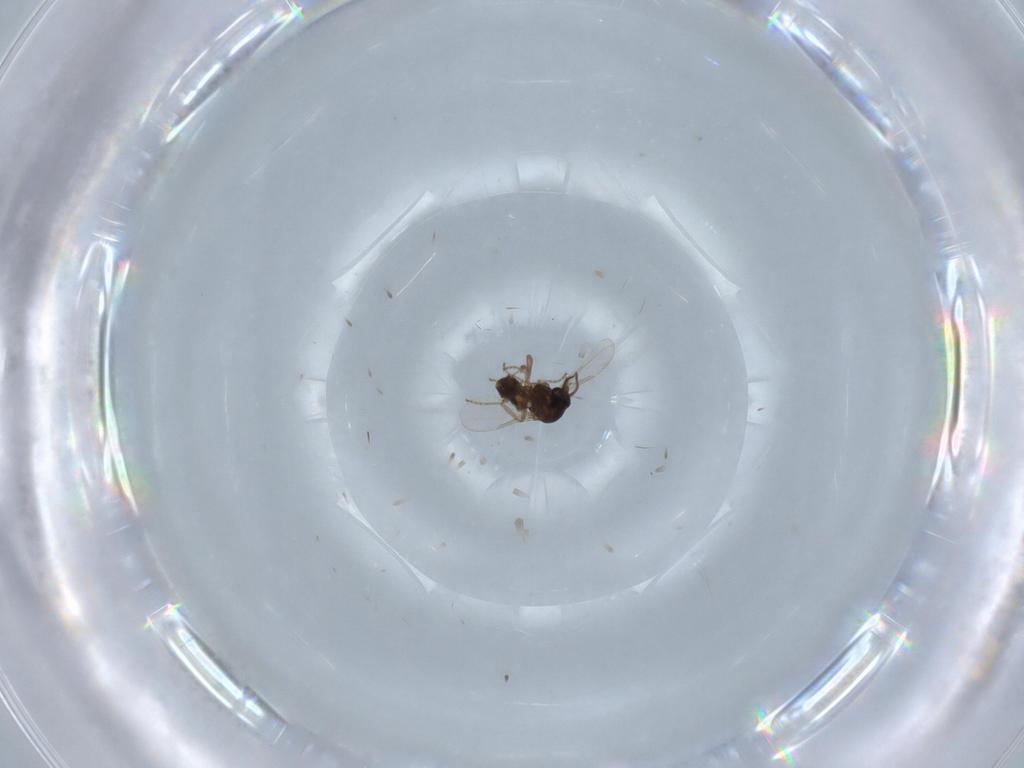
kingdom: Animalia
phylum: Arthropoda
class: Insecta
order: Diptera
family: Ceratopogonidae
